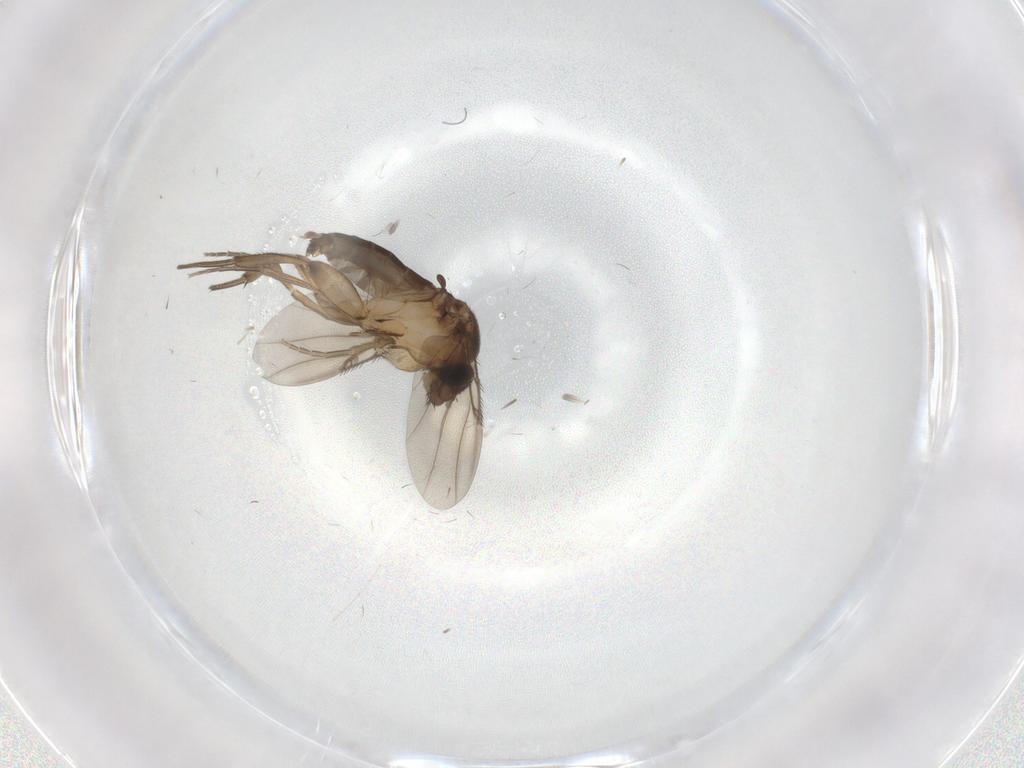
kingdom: Animalia
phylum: Arthropoda
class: Insecta
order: Diptera
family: Phoridae
